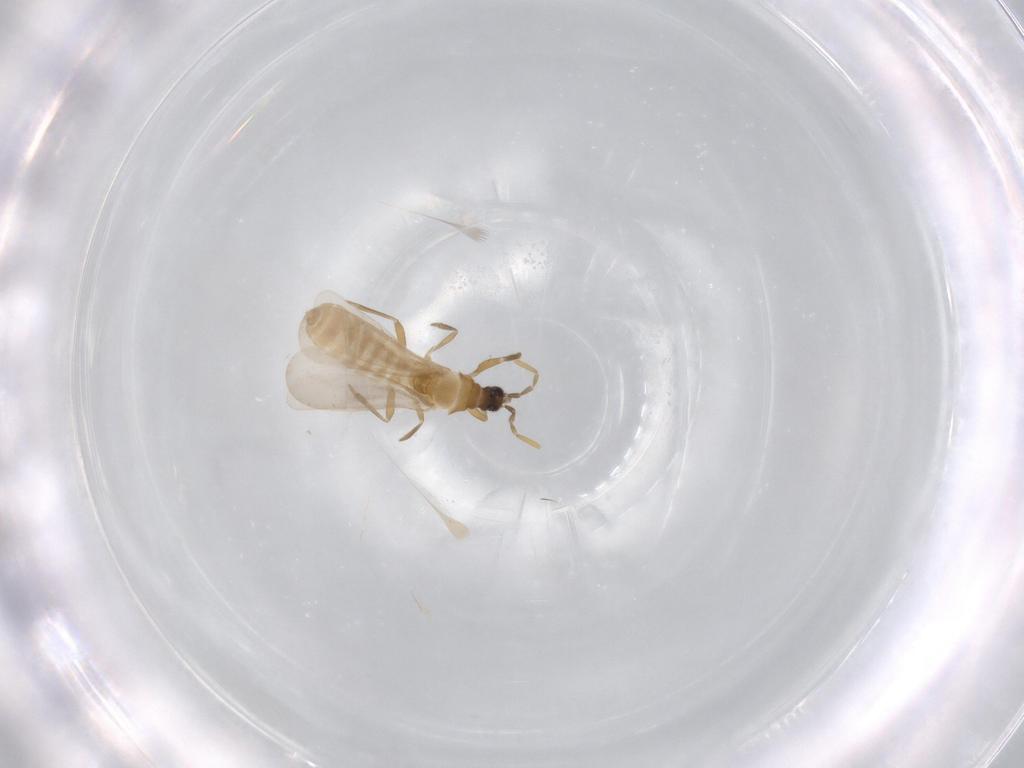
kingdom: Animalia
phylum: Arthropoda
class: Insecta
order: Hemiptera
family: Enicocephalidae
